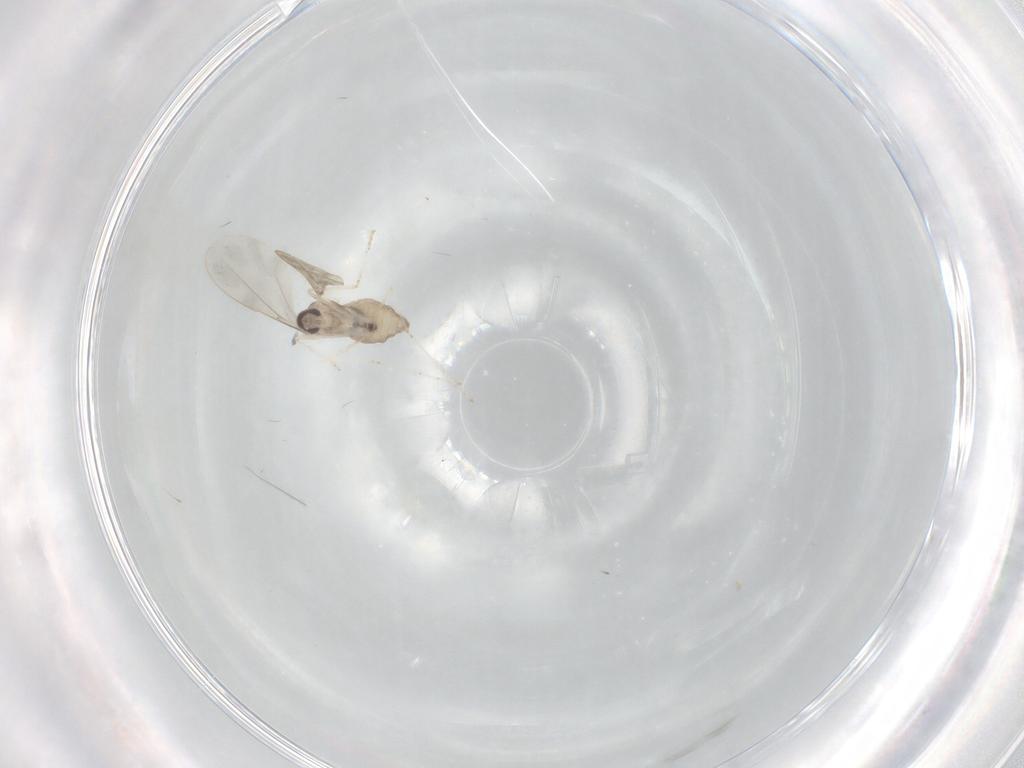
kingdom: Animalia
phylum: Arthropoda
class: Insecta
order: Diptera
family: Cecidomyiidae
